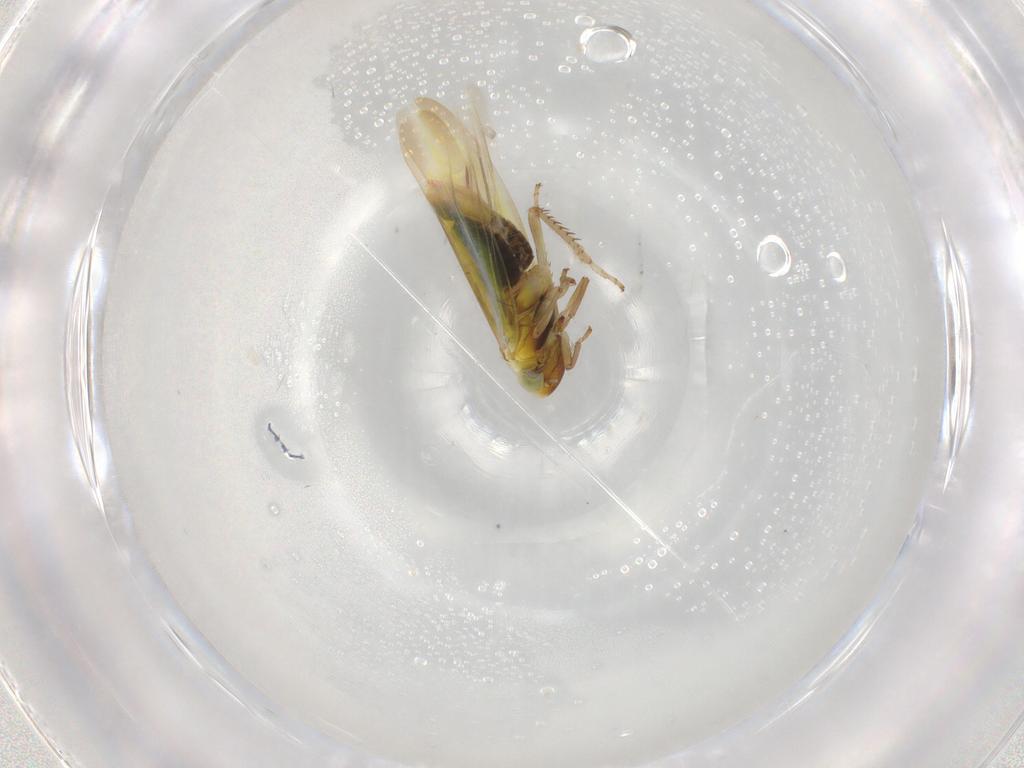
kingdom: Animalia
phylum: Arthropoda
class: Insecta
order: Hemiptera
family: Cicadellidae
